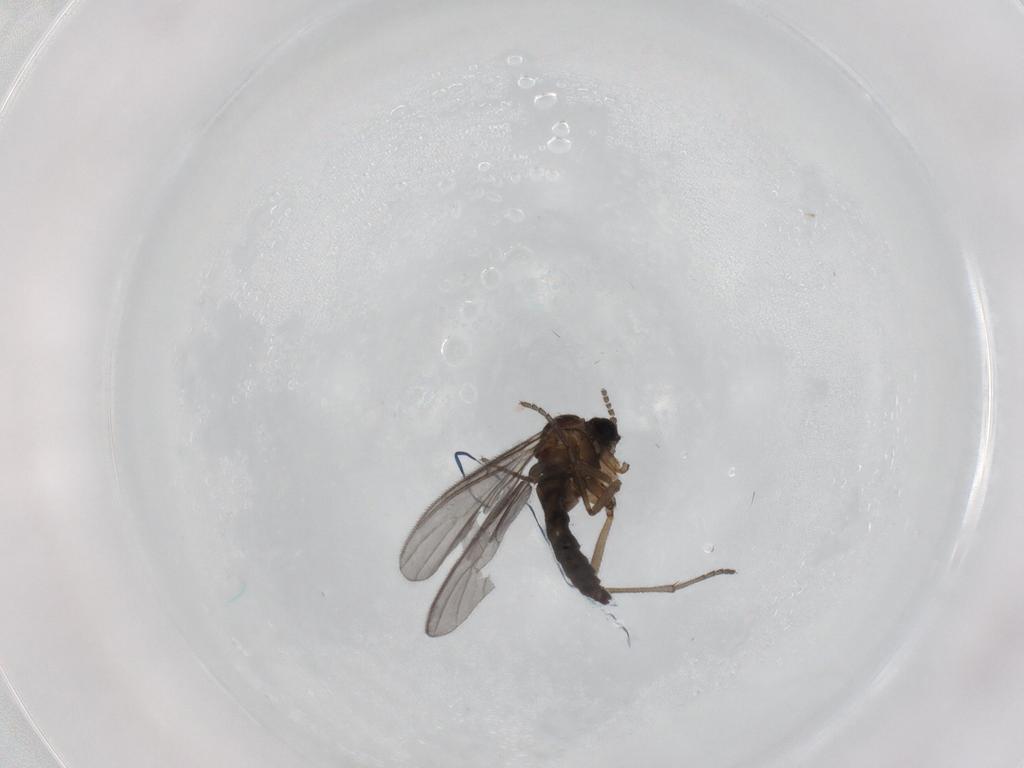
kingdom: Animalia
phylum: Arthropoda
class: Insecta
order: Diptera
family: Sciaridae
